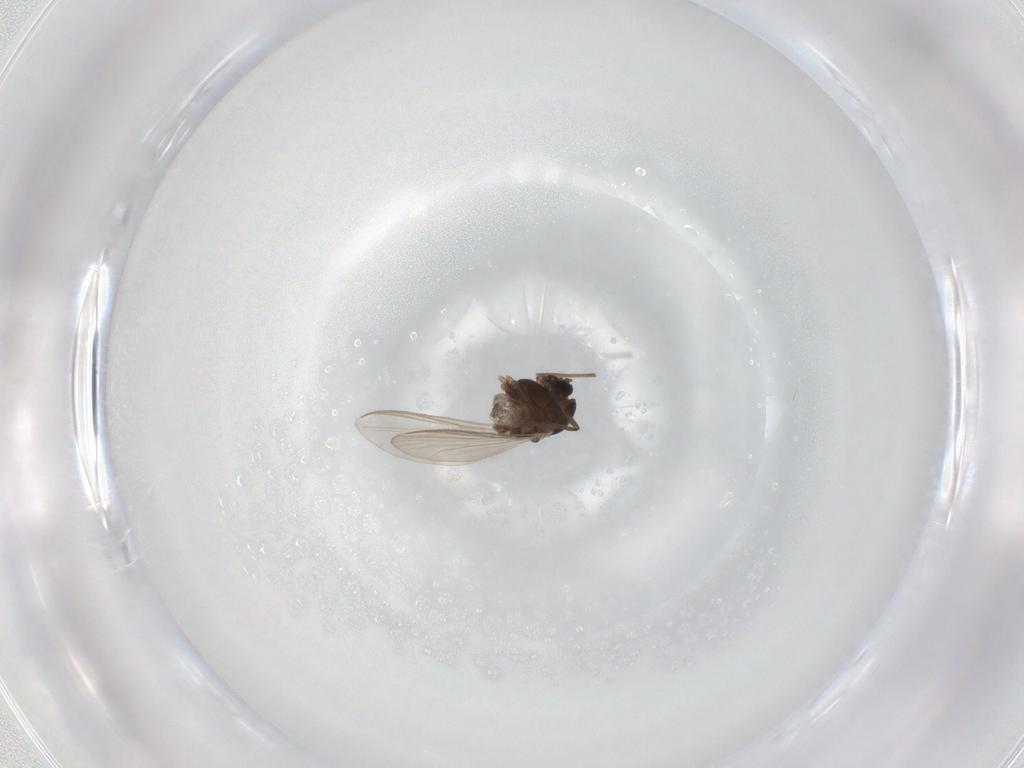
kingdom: Animalia
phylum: Arthropoda
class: Insecta
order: Diptera
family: Chironomidae
